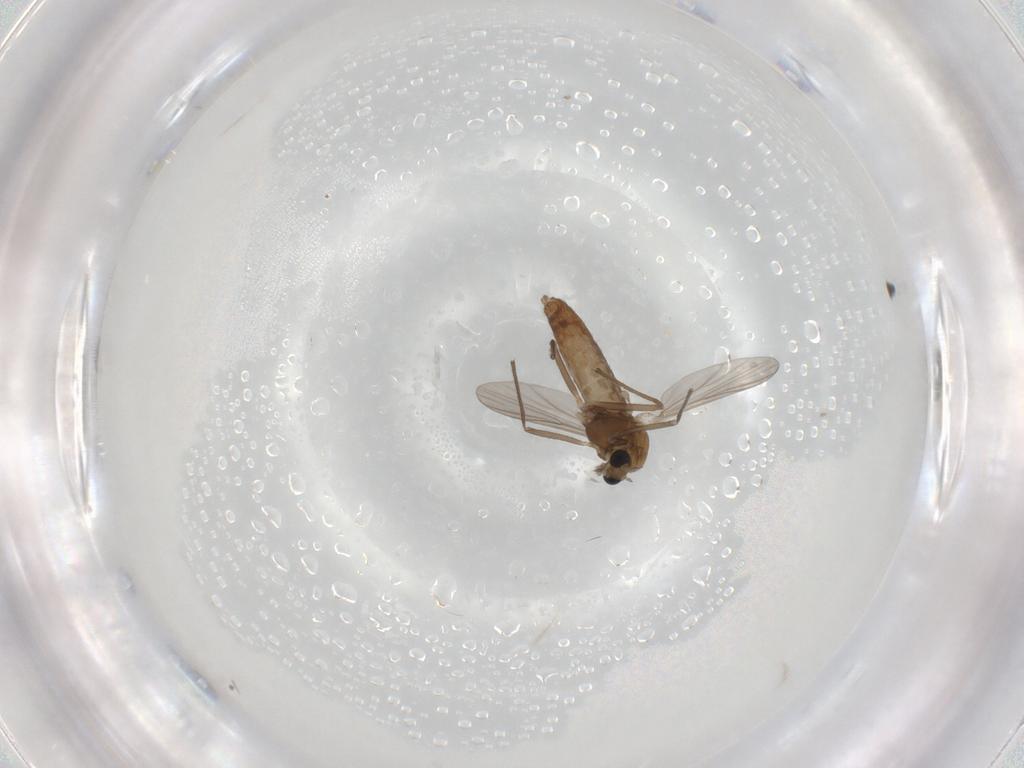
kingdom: Animalia
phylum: Arthropoda
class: Insecta
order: Diptera
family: Chironomidae
